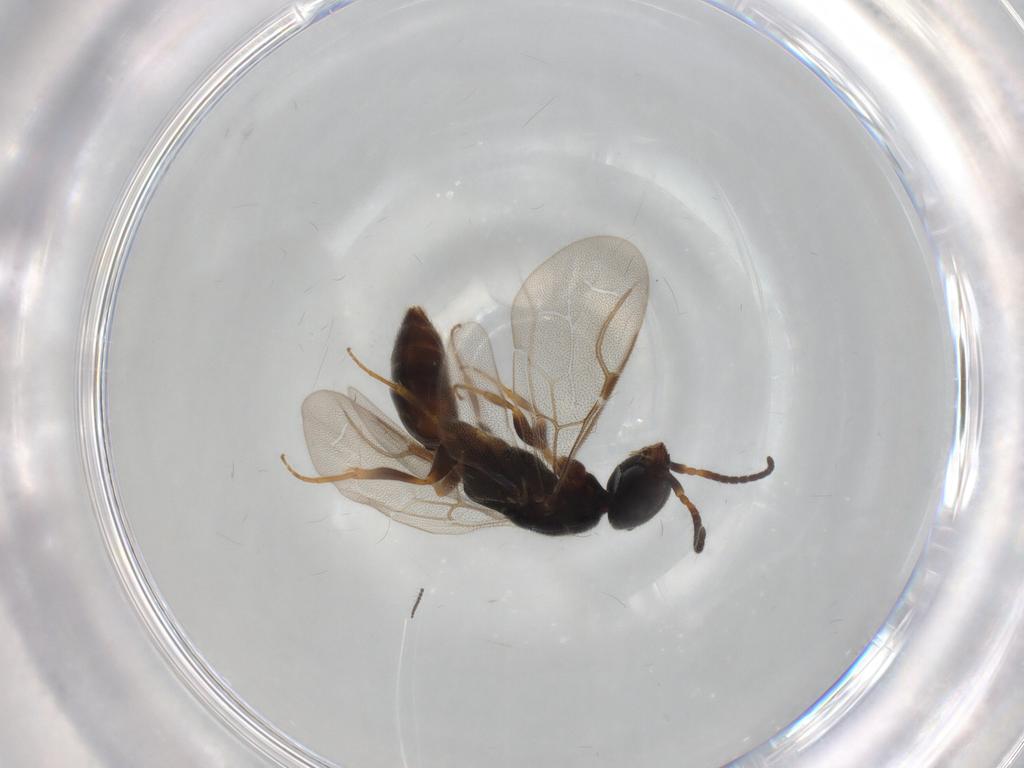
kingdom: Animalia
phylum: Arthropoda
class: Insecta
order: Hymenoptera
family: Bethylidae
